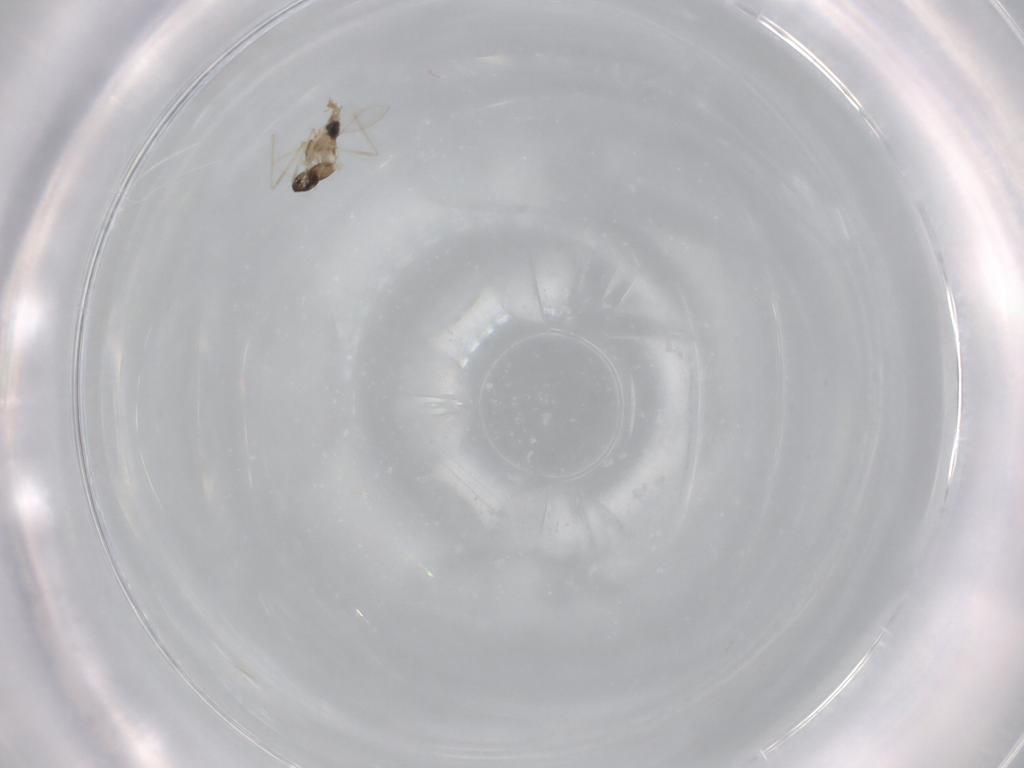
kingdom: Animalia
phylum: Arthropoda
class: Insecta
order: Diptera
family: Cecidomyiidae
